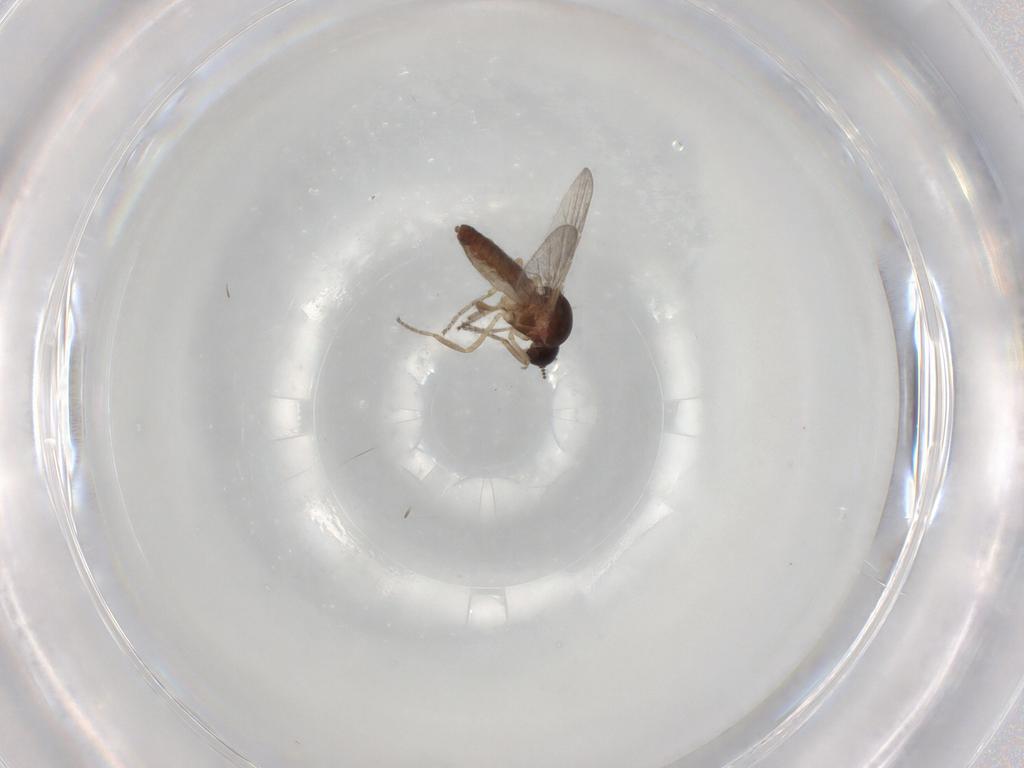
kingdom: Animalia
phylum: Arthropoda
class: Insecta
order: Diptera
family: Ceratopogonidae
